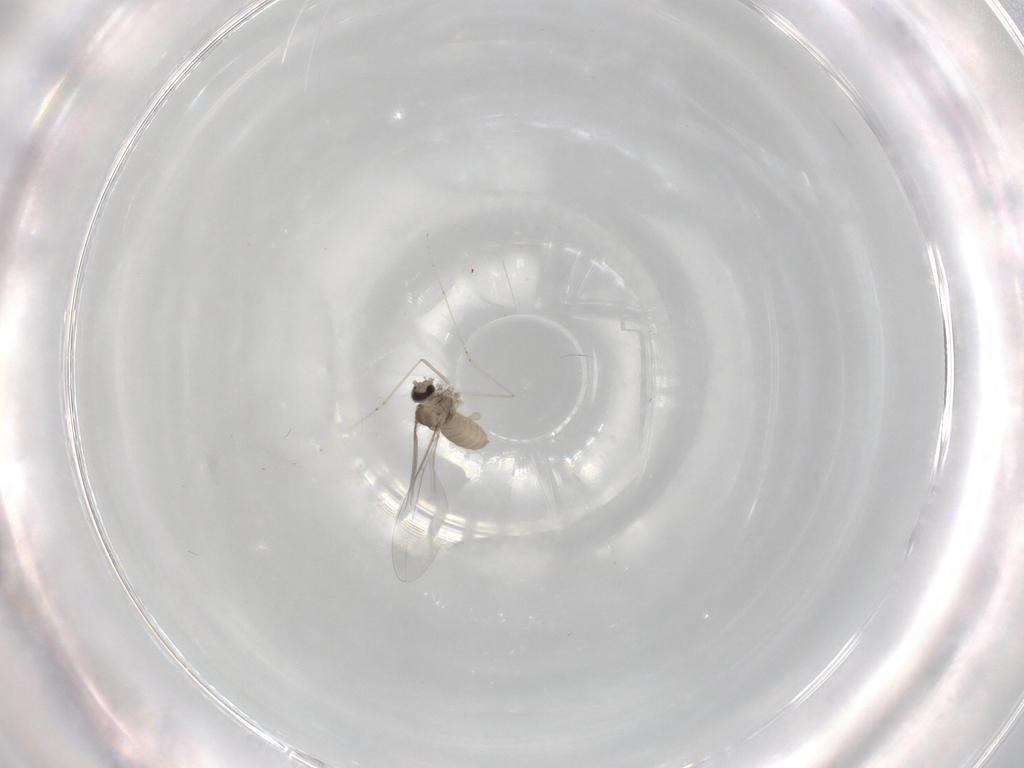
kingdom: Animalia
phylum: Arthropoda
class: Insecta
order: Diptera
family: Cecidomyiidae
